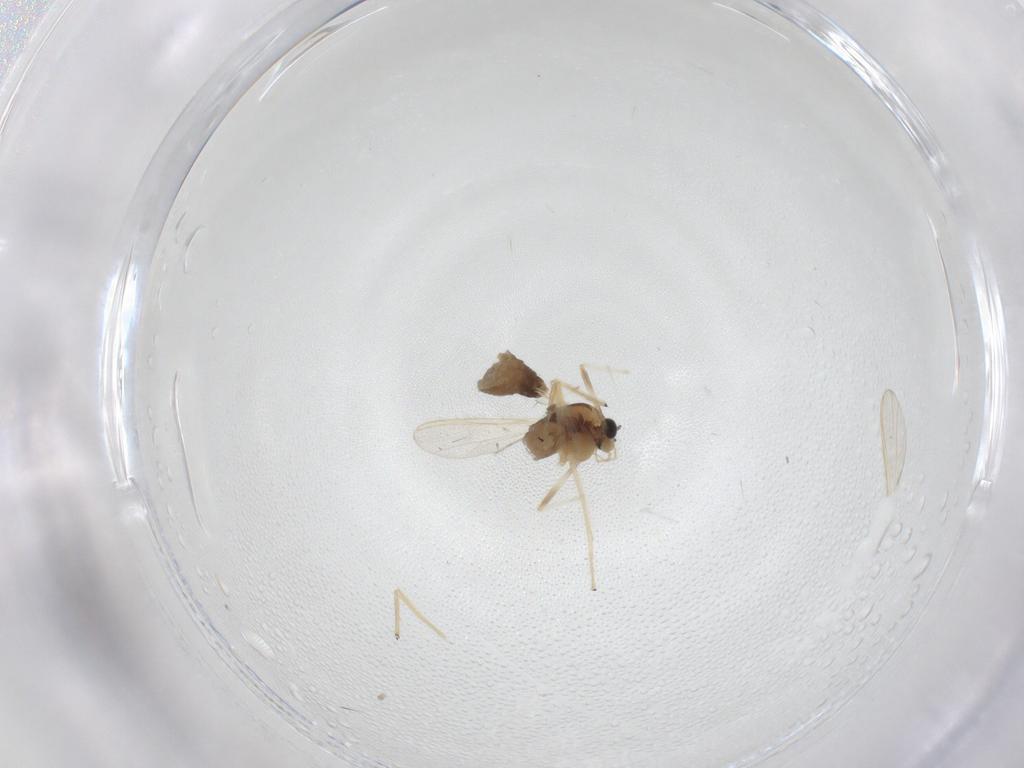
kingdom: Animalia
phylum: Arthropoda
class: Insecta
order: Diptera
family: Chironomidae
